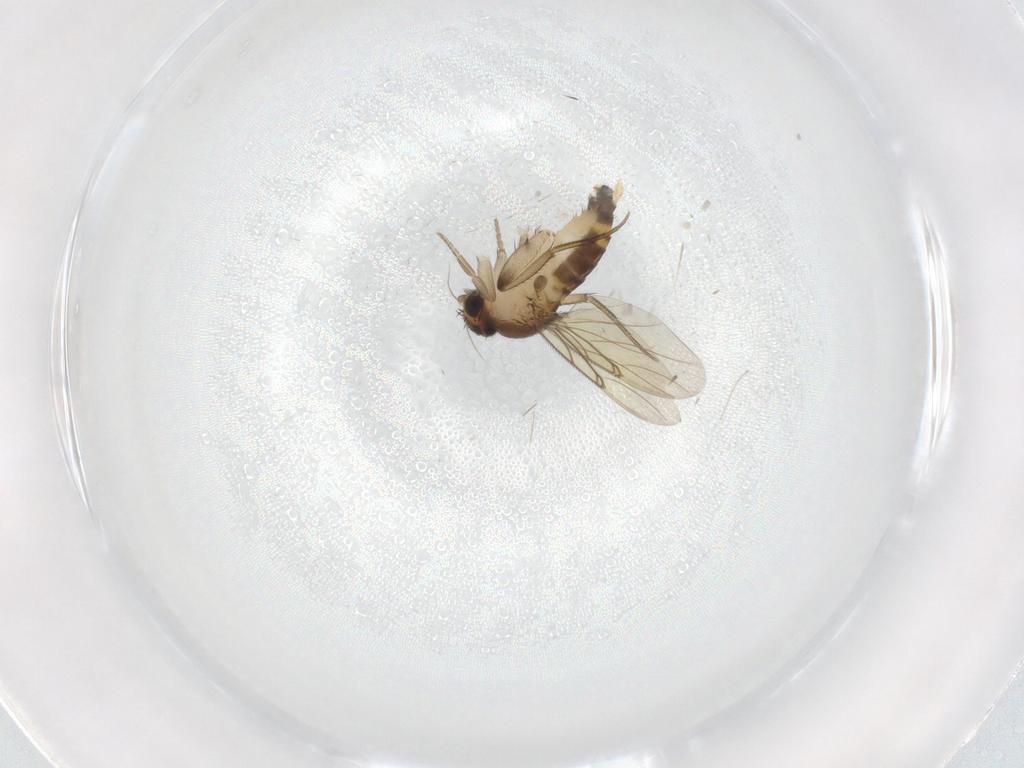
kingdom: Animalia
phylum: Arthropoda
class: Insecta
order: Diptera
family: Phoridae
